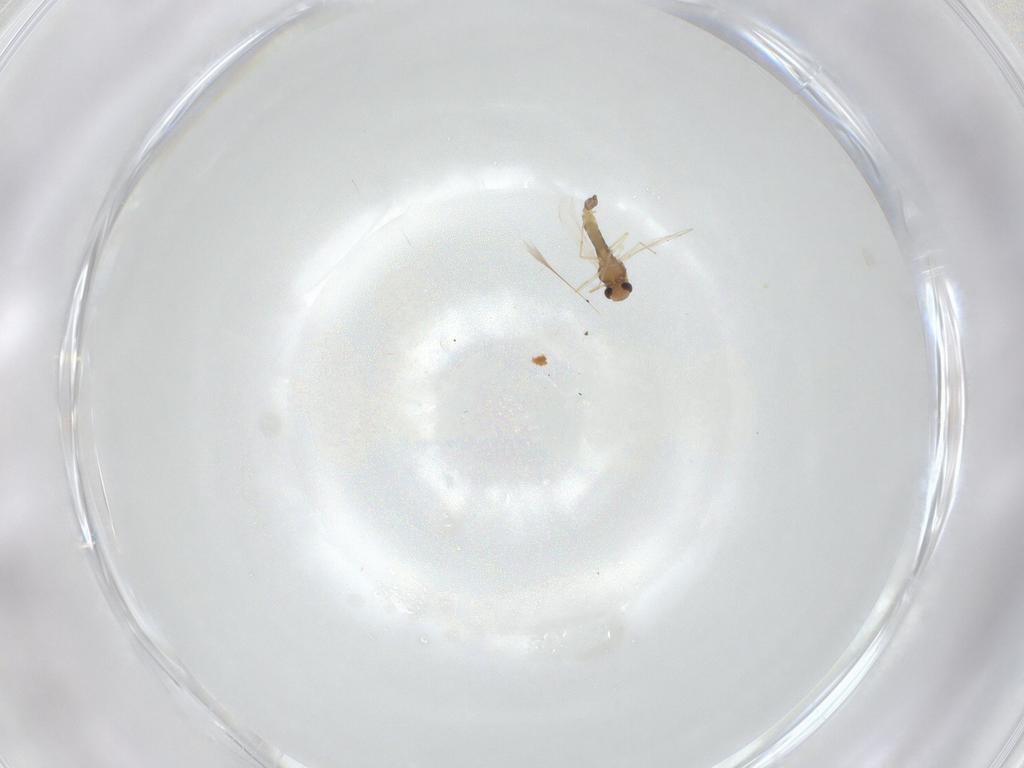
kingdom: Animalia
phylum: Arthropoda
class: Insecta
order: Diptera
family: Chironomidae
